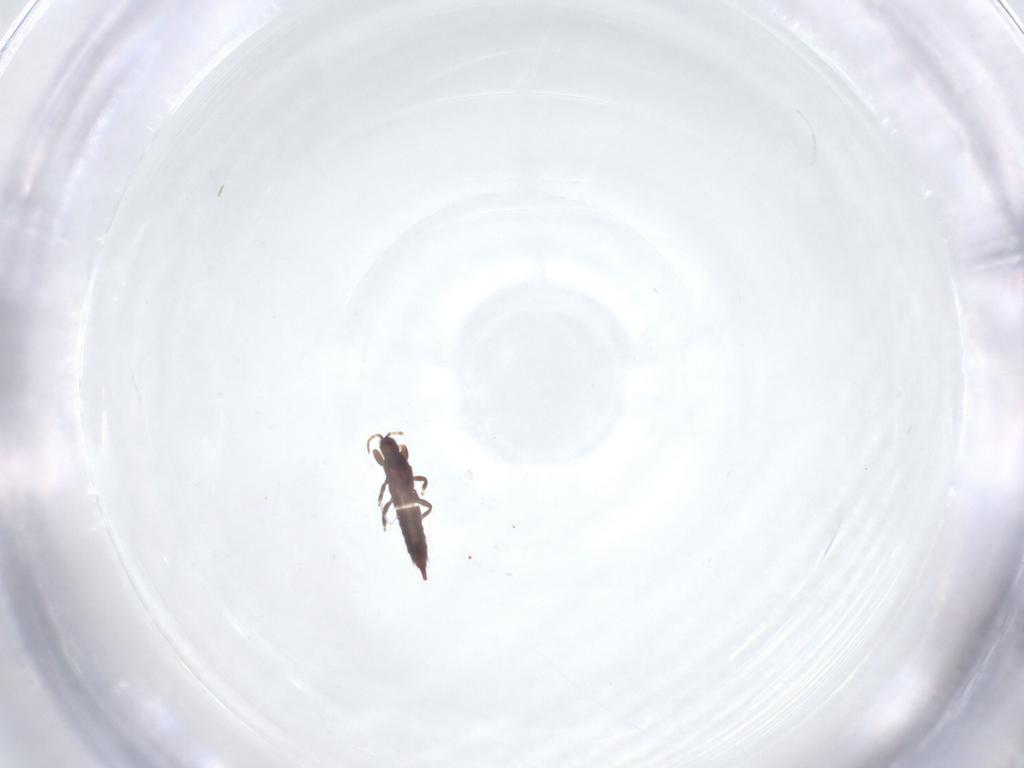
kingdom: Animalia
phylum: Arthropoda
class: Insecta
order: Thysanoptera
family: Phlaeothripidae
